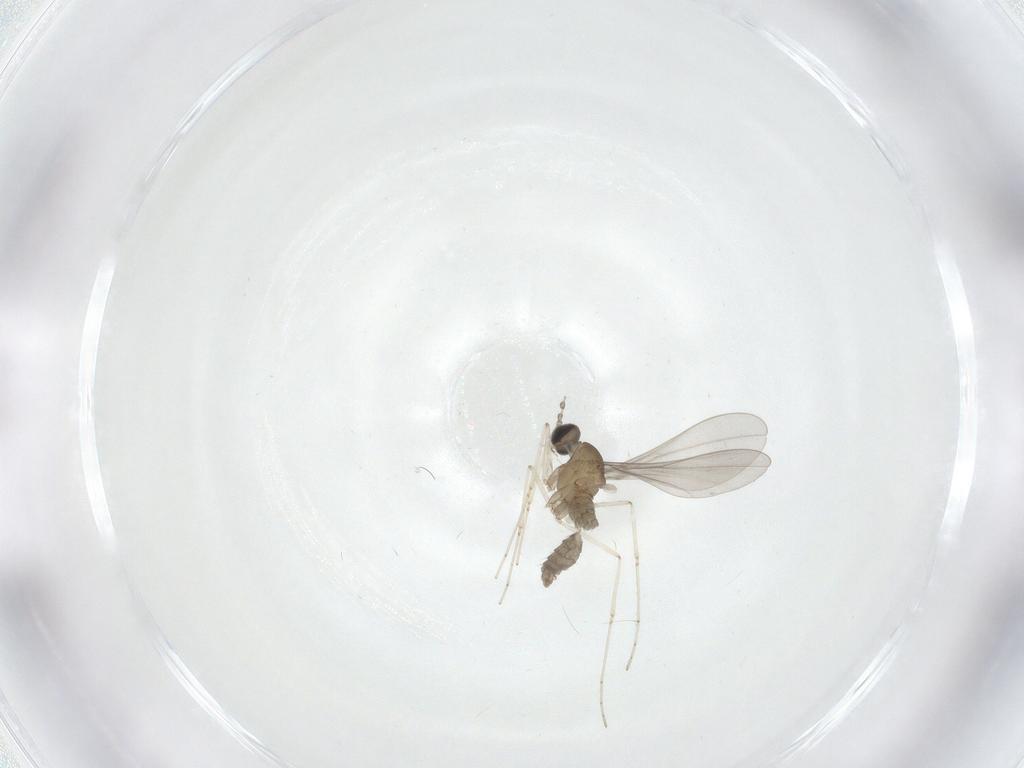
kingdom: Animalia
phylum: Arthropoda
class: Insecta
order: Diptera
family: Cecidomyiidae
